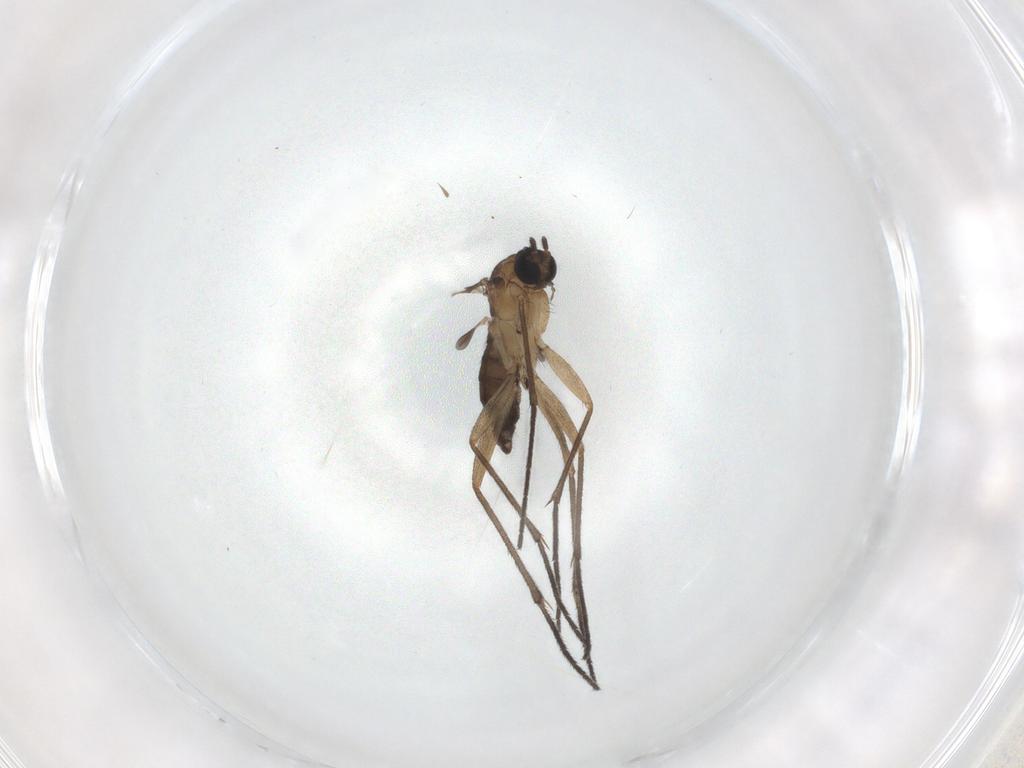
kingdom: Animalia
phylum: Arthropoda
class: Insecta
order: Diptera
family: Sciaridae
